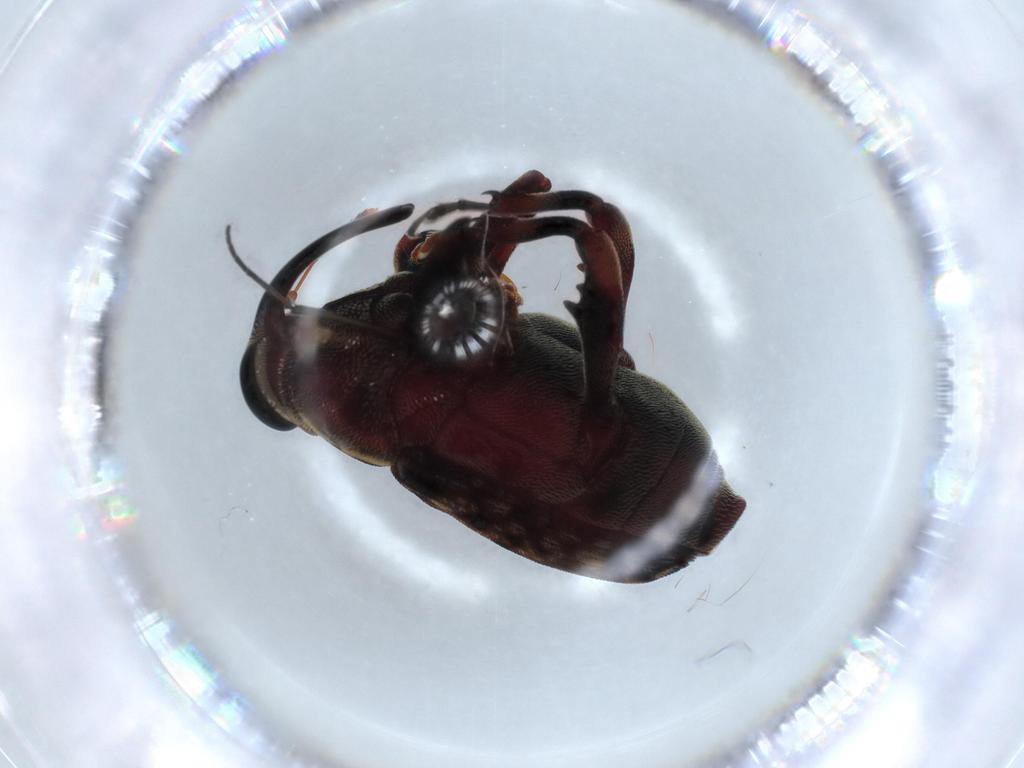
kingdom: Animalia
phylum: Arthropoda
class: Insecta
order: Coleoptera
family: Curculionidae
